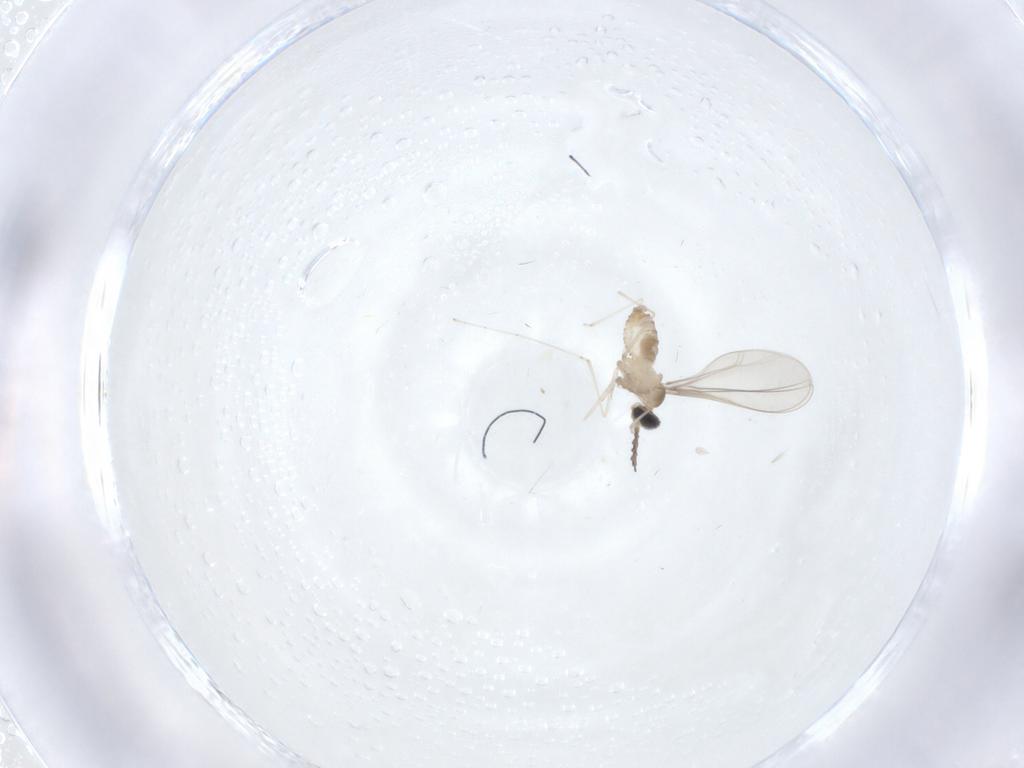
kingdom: Animalia
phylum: Arthropoda
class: Insecta
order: Diptera
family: Cecidomyiidae
